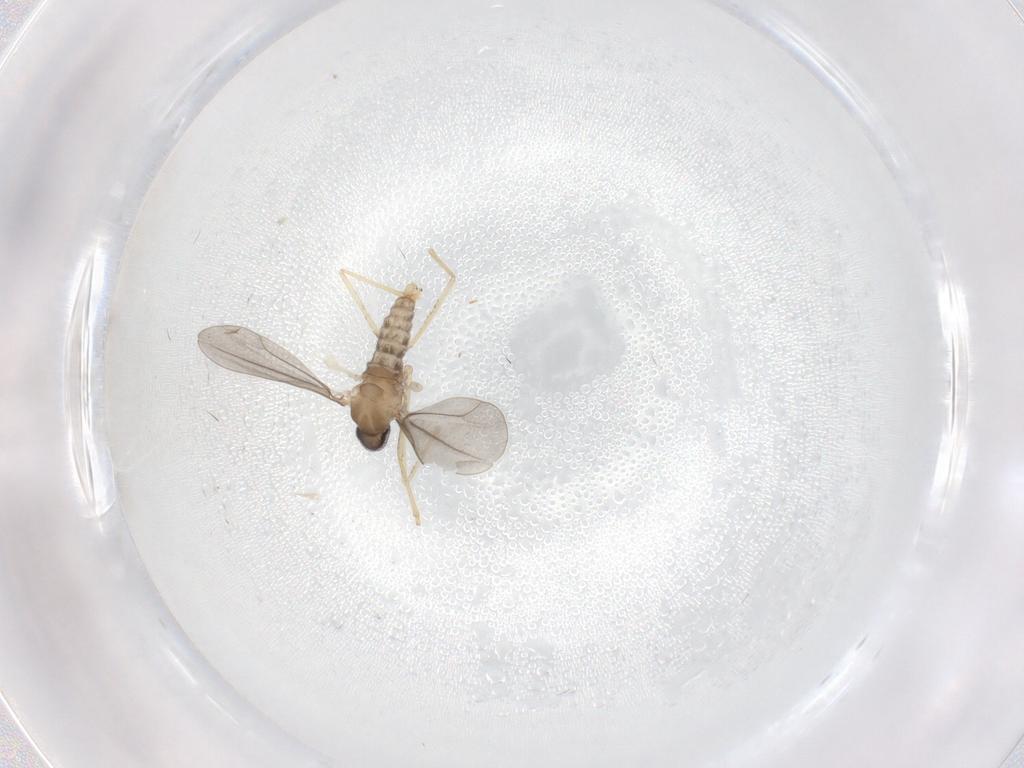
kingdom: Animalia
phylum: Arthropoda
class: Insecta
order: Diptera
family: Cecidomyiidae
